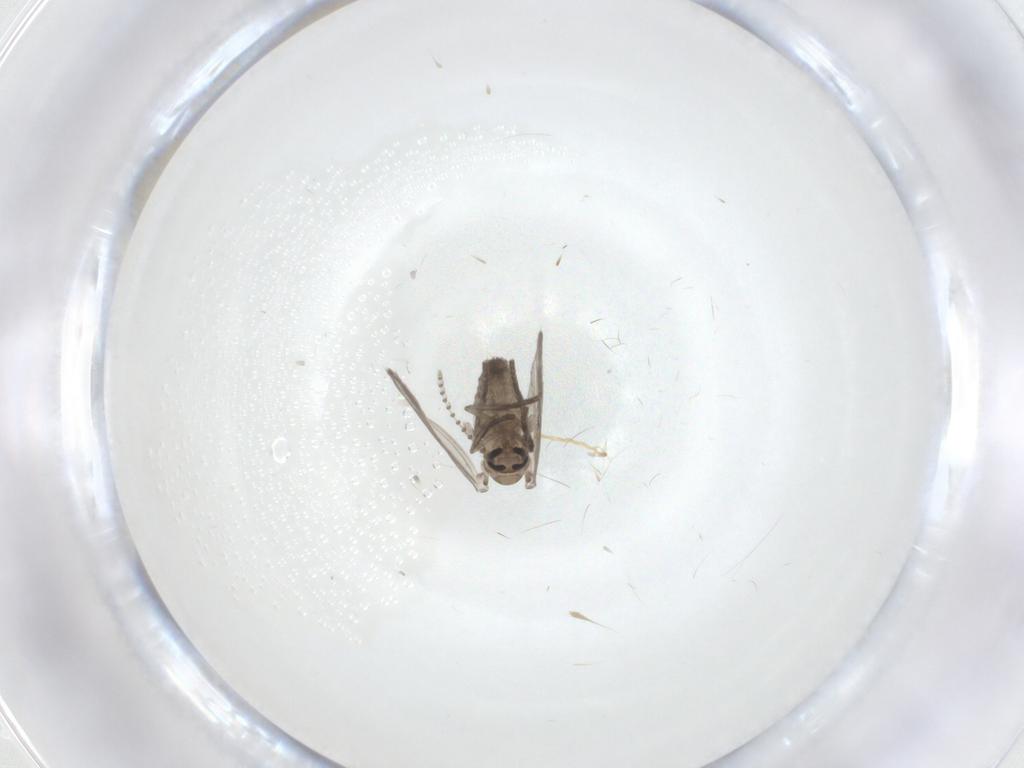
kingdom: Animalia
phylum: Arthropoda
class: Insecta
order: Diptera
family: Psychodidae
